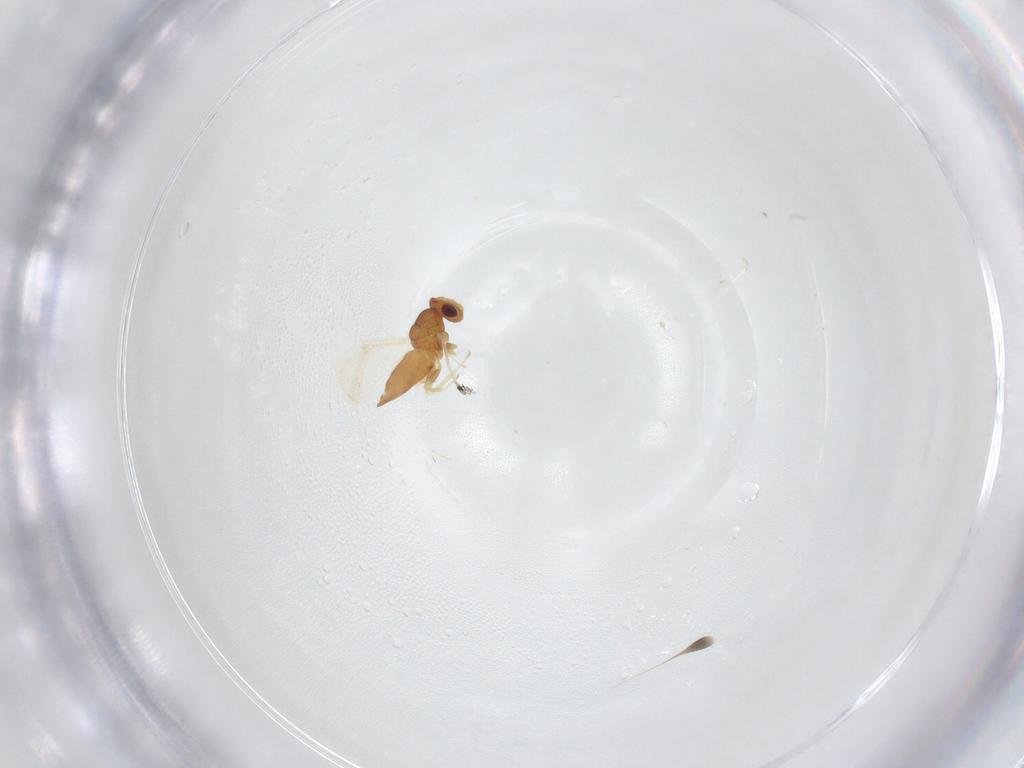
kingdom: Animalia
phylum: Arthropoda
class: Insecta
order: Hymenoptera
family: Eulophidae
